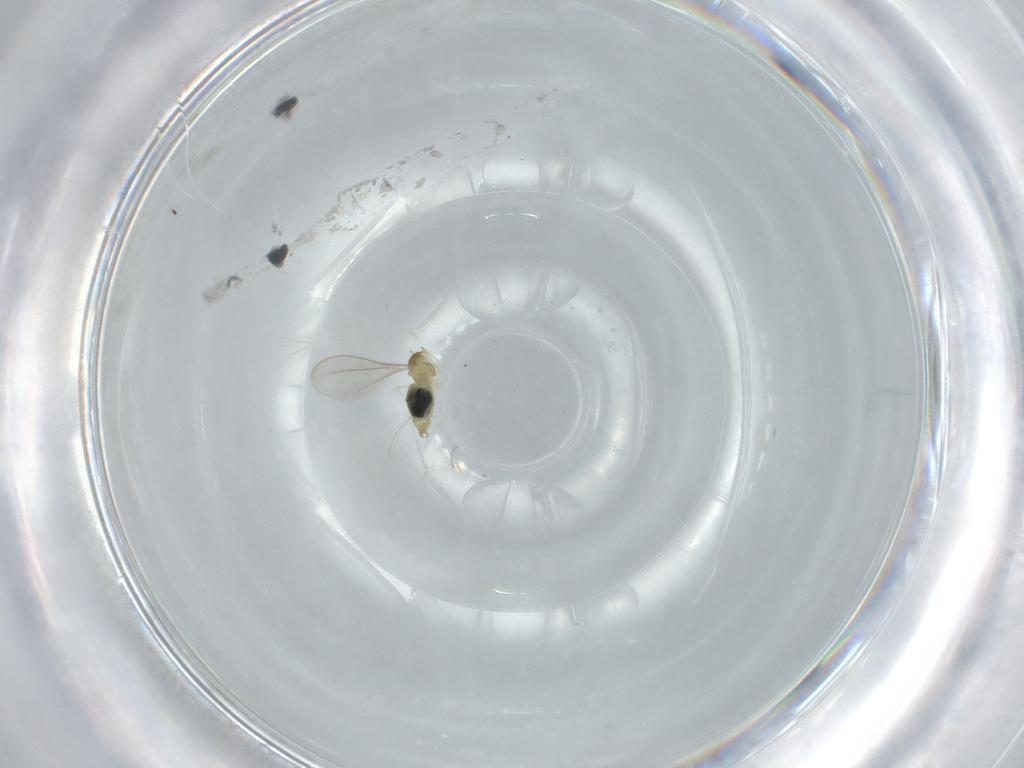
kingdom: Animalia
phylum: Arthropoda
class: Insecta
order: Diptera
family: Cecidomyiidae
